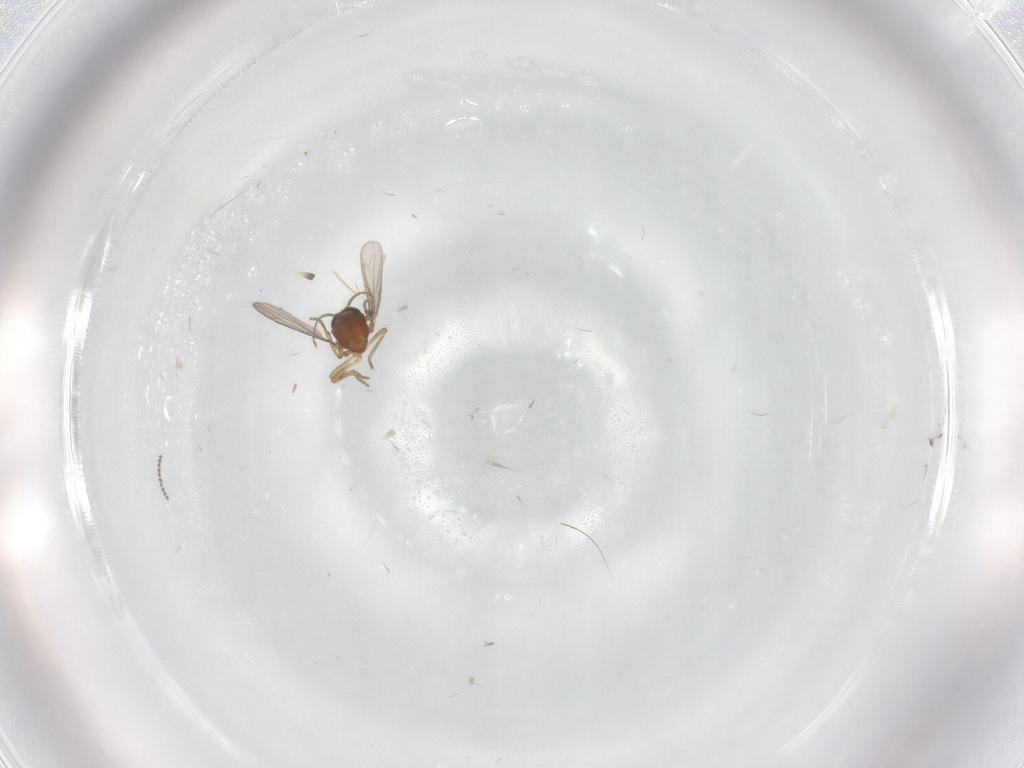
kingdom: Animalia
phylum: Arthropoda
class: Insecta
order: Diptera
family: Cecidomyiidae
